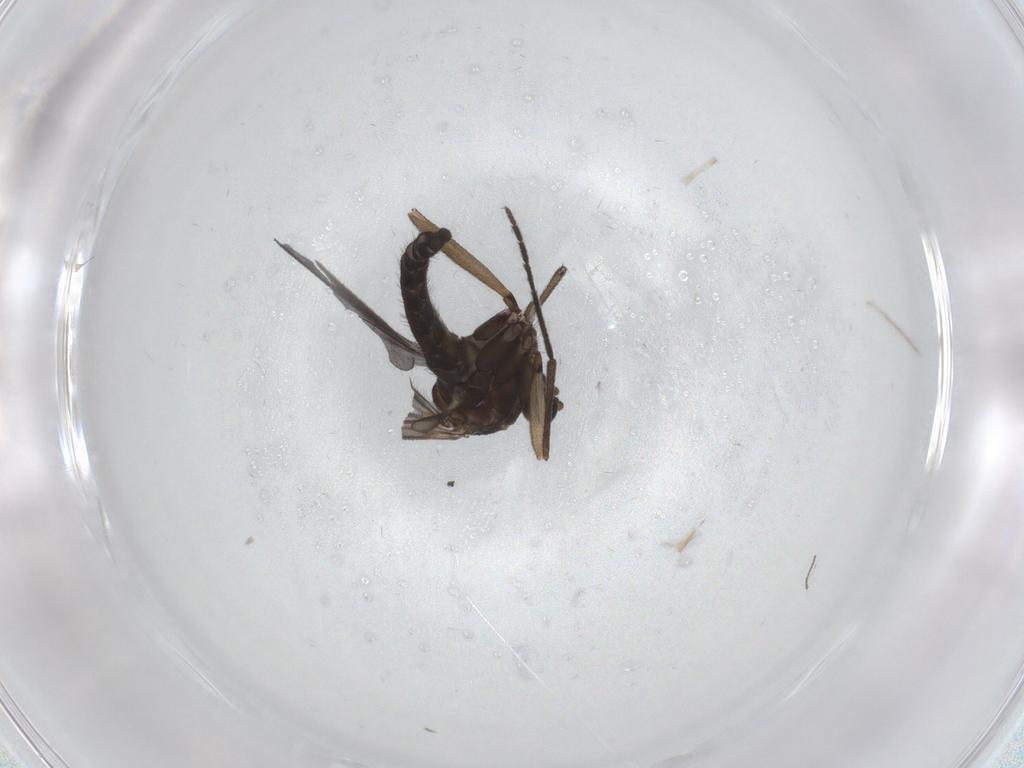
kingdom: Animalia
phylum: Arthropoda
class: Insecta
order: Diptera
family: Sciaridae
